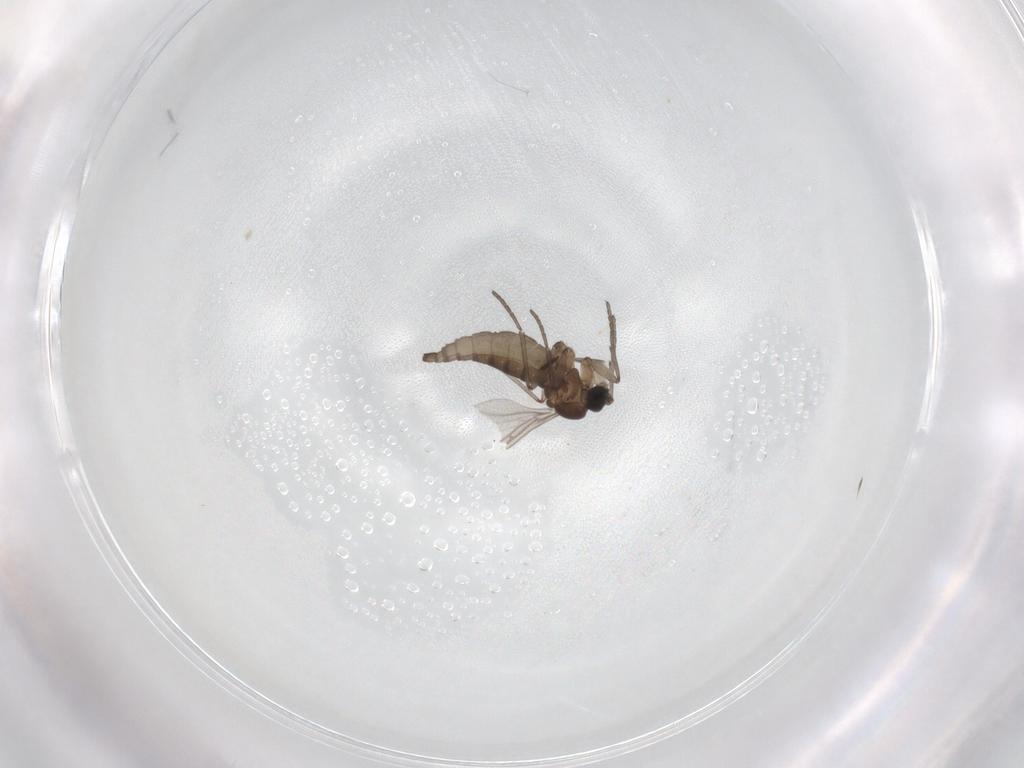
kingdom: Animalia
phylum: Arthropoda
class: Insecta
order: Diptera
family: Sciaridae
